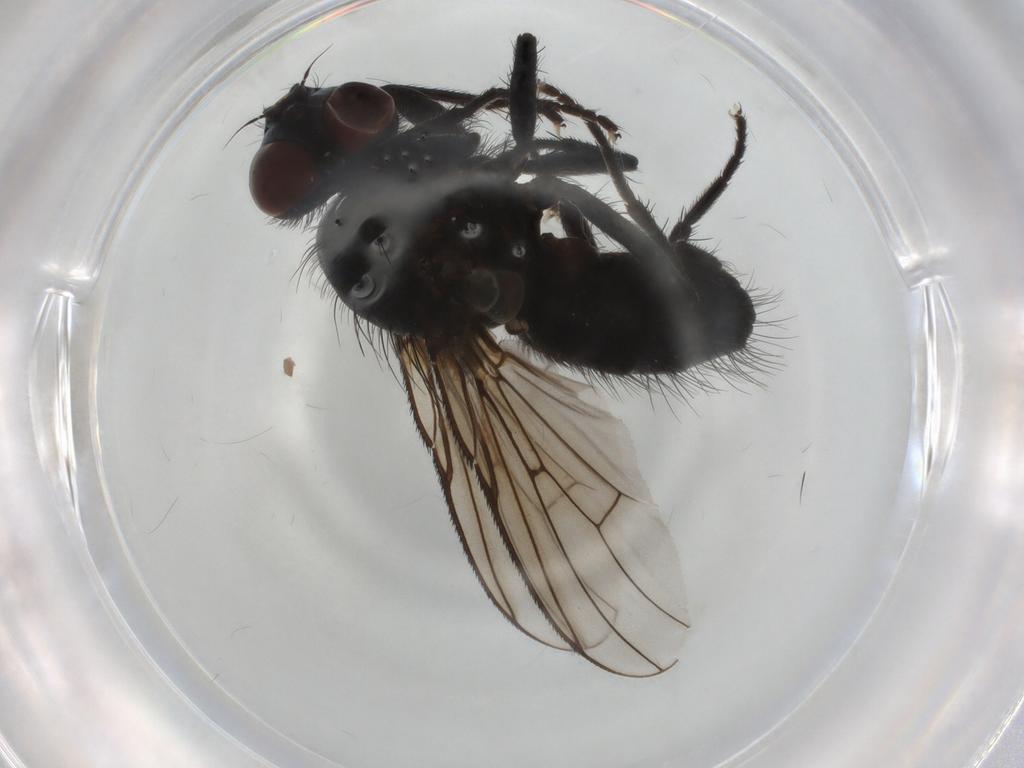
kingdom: Animalia
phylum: Arthropoda
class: Insecta
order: Diptera
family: Muscidae
